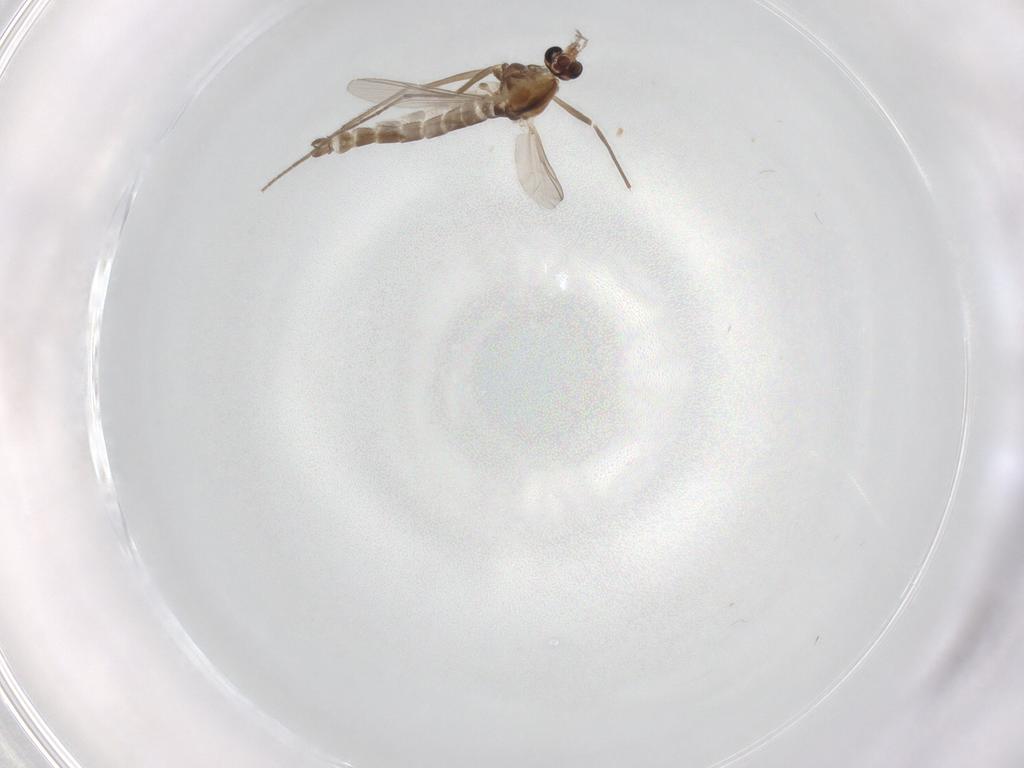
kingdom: Animalia
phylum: Arthropoda
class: Insecta
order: Diptera
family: Chironomidae
